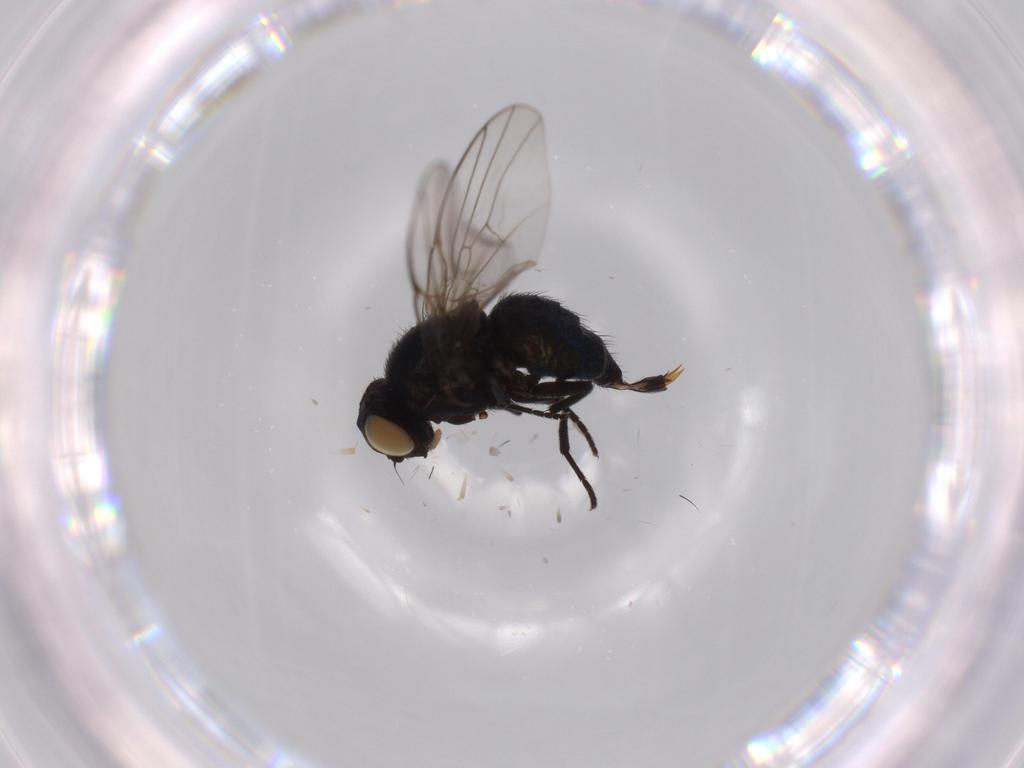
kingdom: Animalia
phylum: Arthropoda
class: Insecta
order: Diptera
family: Agromyzidae
